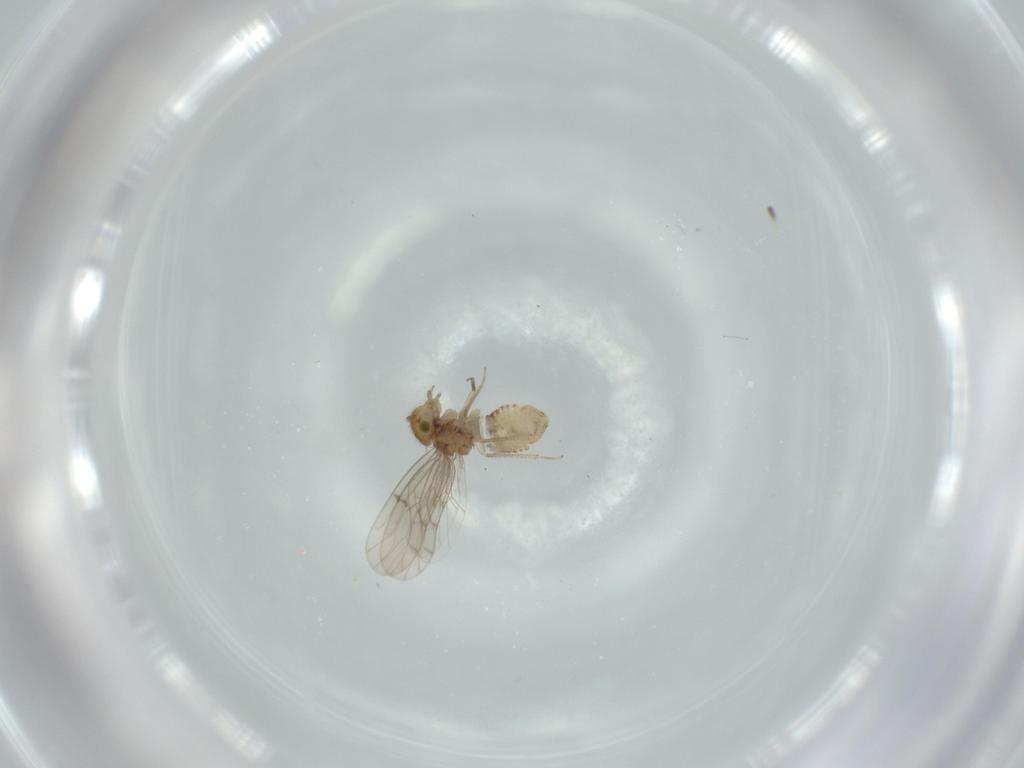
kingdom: Animalia
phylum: Arthropoda
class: Insecta
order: Psocodea
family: Ectopsocidae
